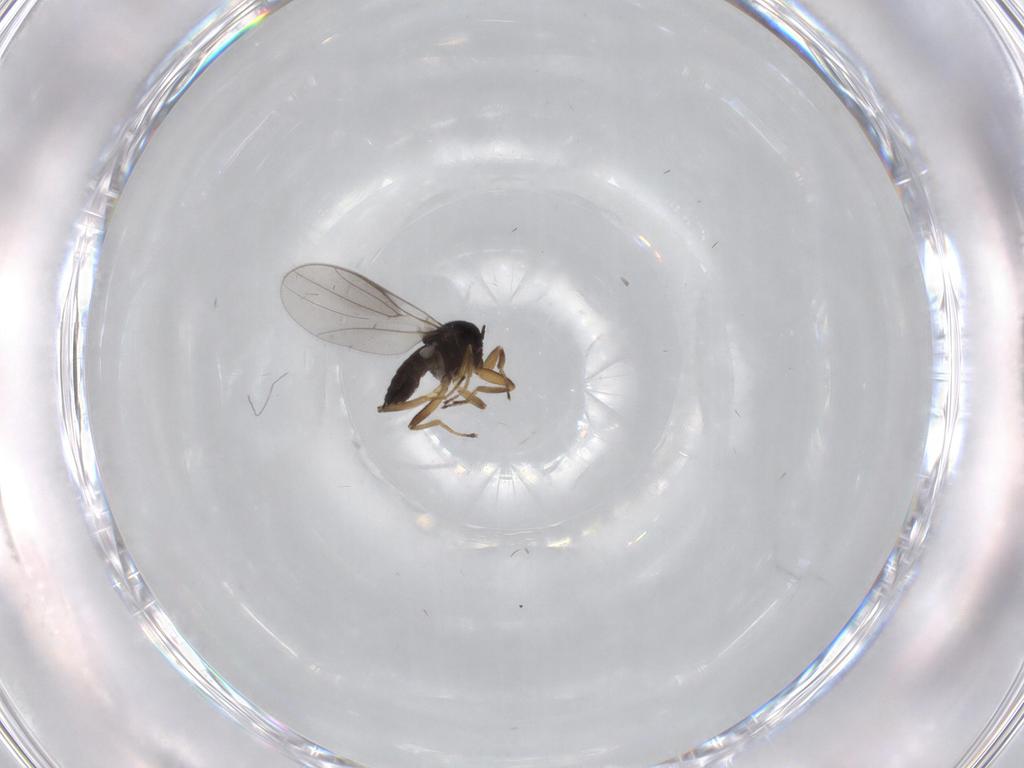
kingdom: Animalia
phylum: Arthropoda
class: Insecta
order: Diptera
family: Hybotidae
